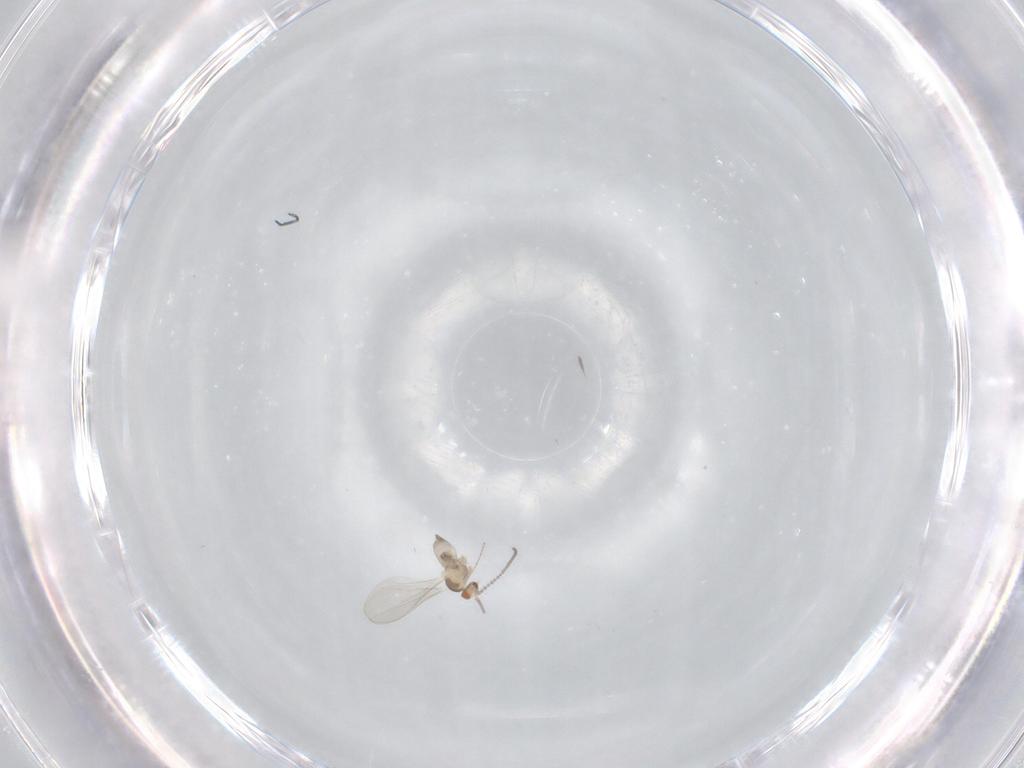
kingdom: Animalia
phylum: Arthropoda
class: Insecta
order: Diptera
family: Cecidomyiidae
